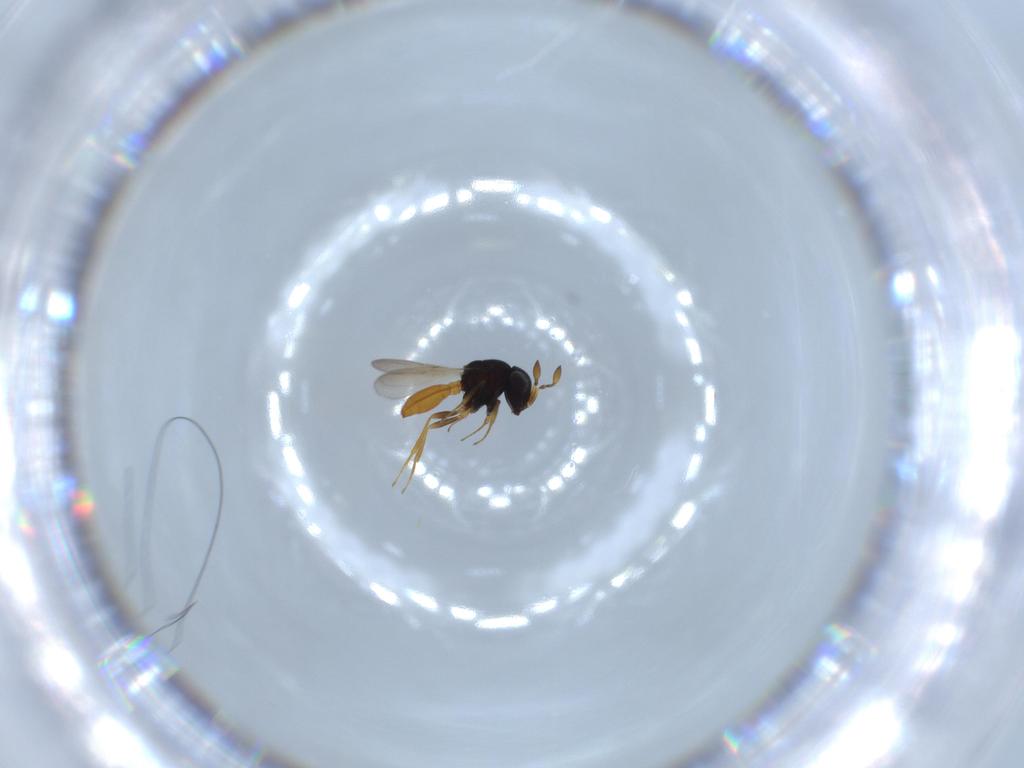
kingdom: Animalia
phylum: Arthropoda
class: Insecta
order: Hymenoptera
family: Scelionidae
